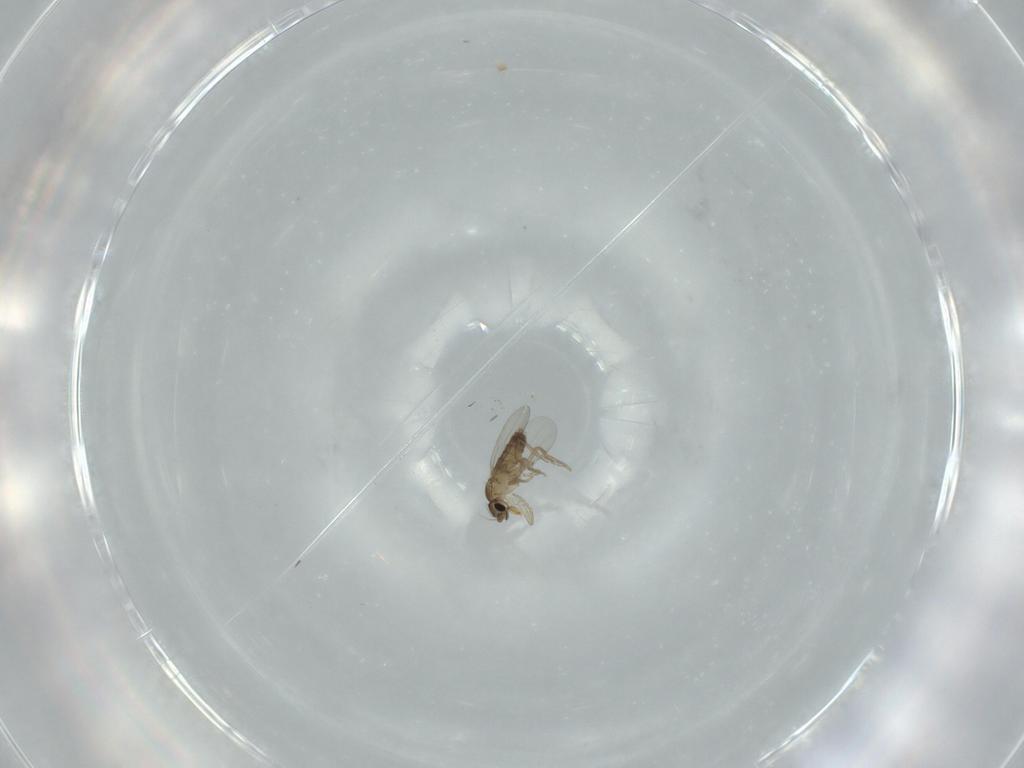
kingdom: Animalia
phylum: Arthropoda
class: Insecta
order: Diptera
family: Phoridae
